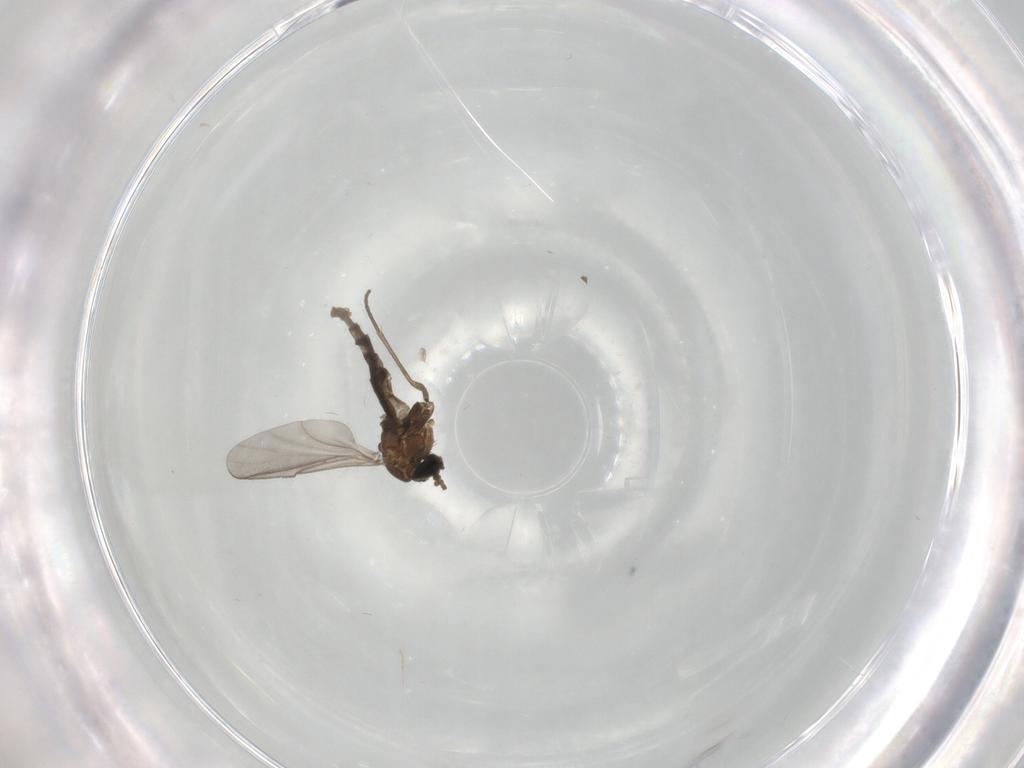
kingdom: Animalia
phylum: Arthropoda
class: Insecta
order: Diptera
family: Sciaridae
